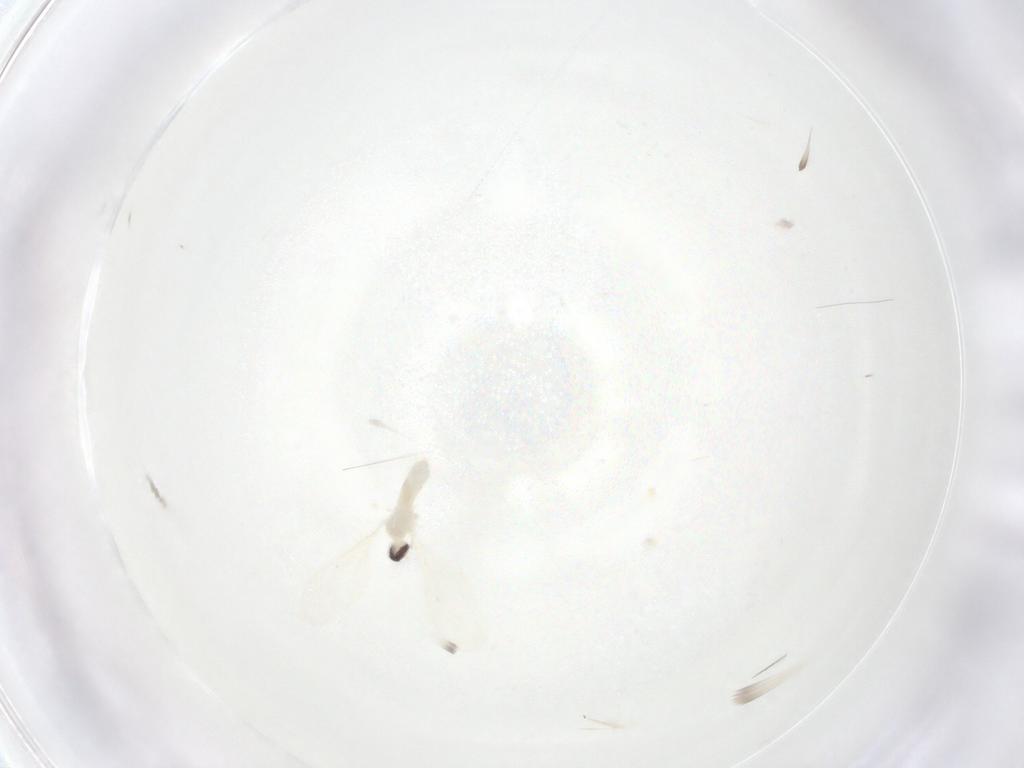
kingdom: Animalia
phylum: Arthropoda
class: Insecta
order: Diptera
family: Cecidomyiidae
